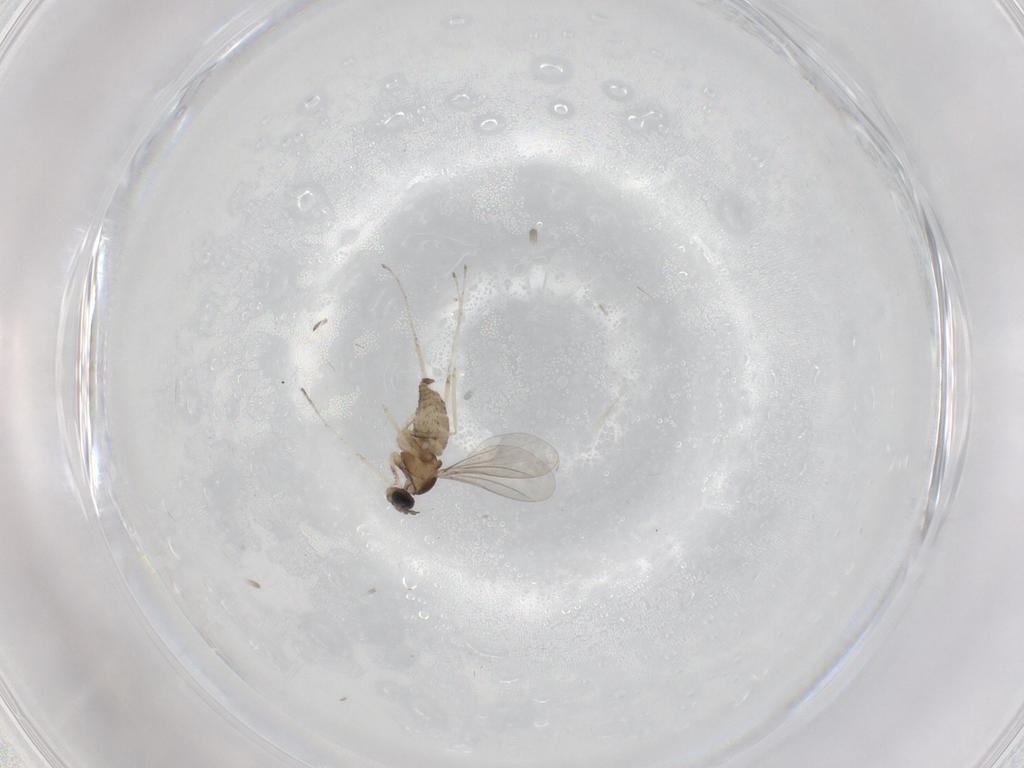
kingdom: Animalia
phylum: Arthropoda
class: Insecta
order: Diptera
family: Cecidomyiidae
